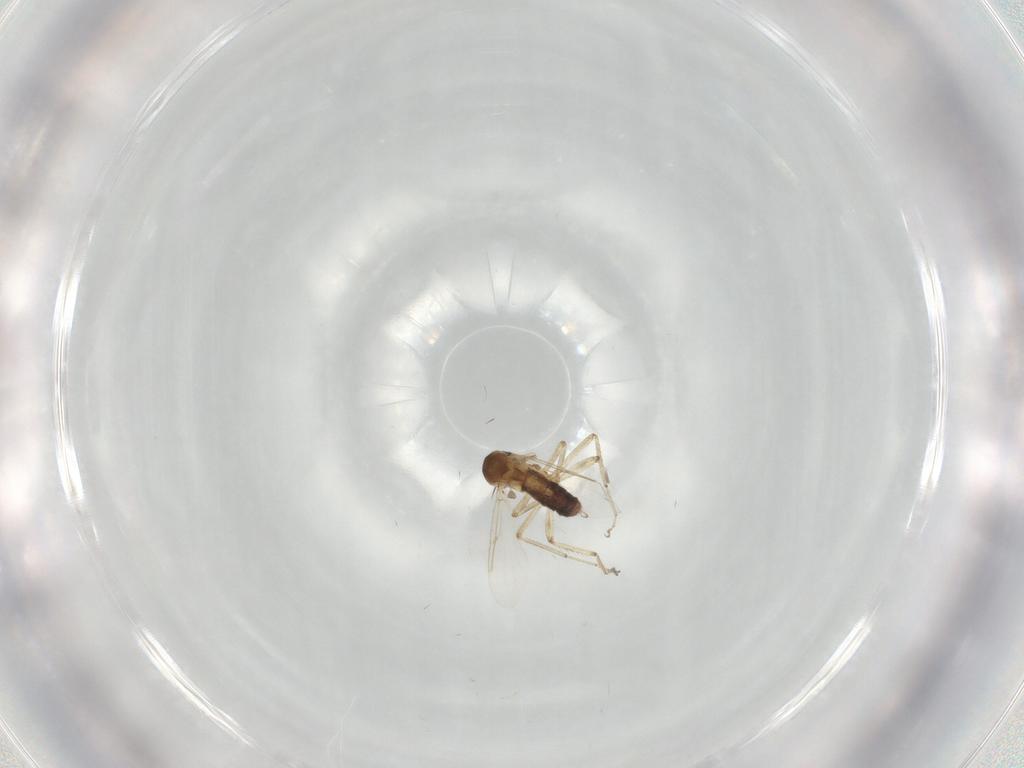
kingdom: Animalia
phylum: Arthropoda
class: Insecta
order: Diptera
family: Ceratopogonidae
